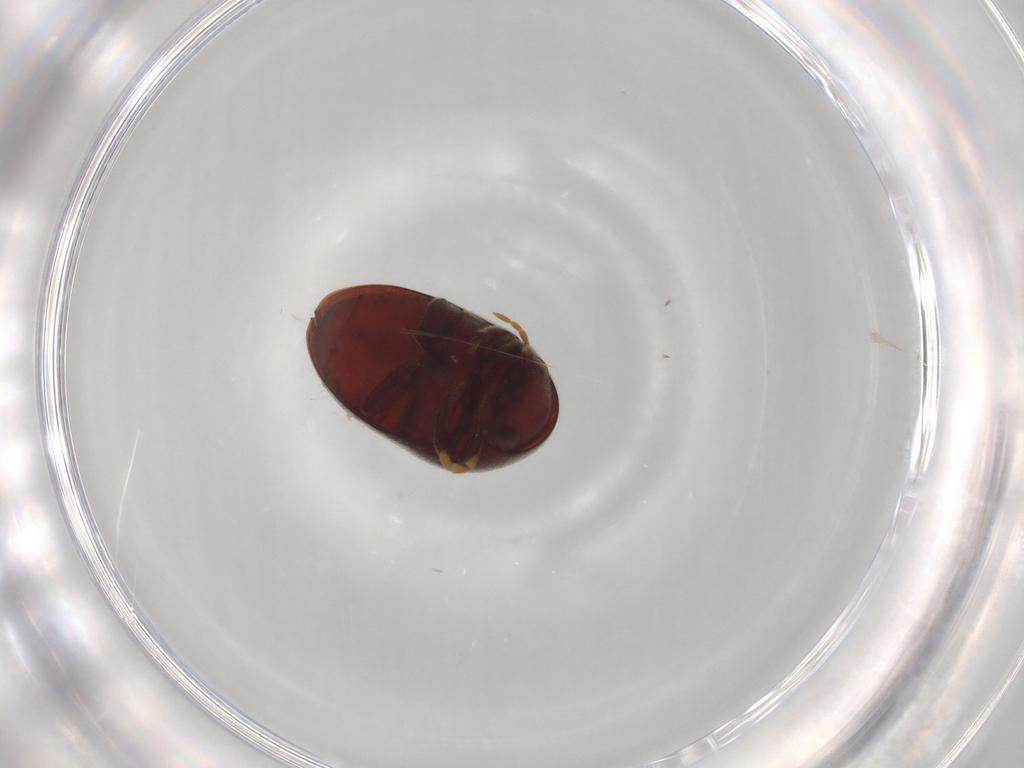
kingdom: Animalia
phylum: Arthropoda
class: Insecta
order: Coleoptera
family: Anobiidae
